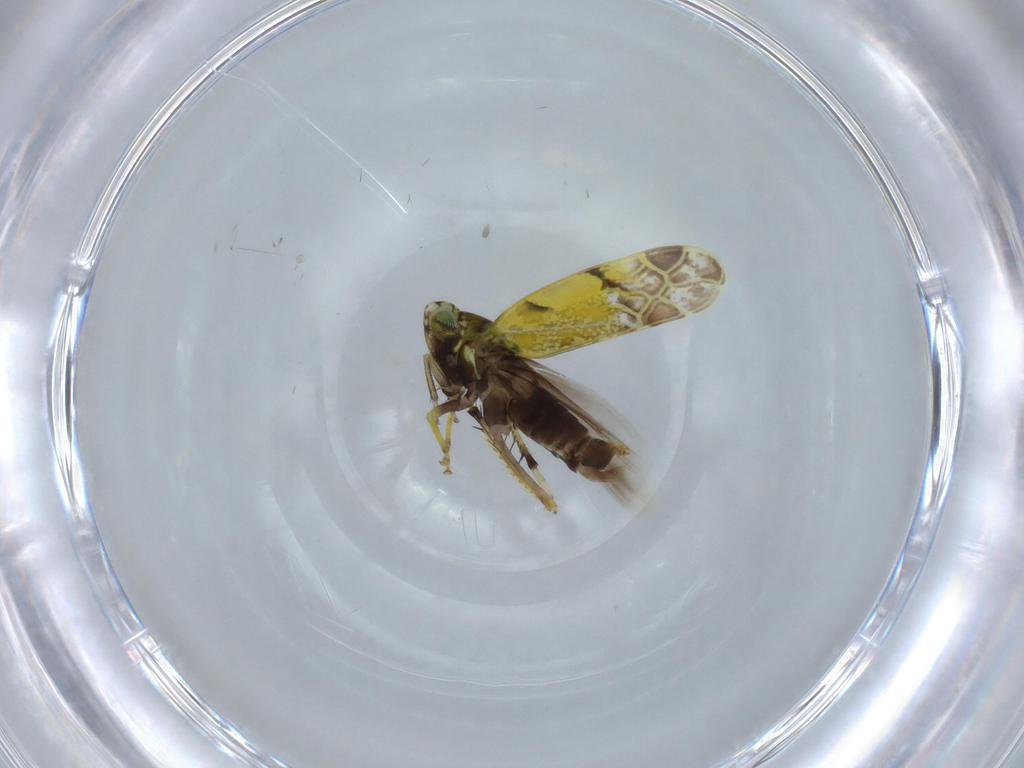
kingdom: Animalia
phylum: Arthropoda
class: Insecta
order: Hemiptera
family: Cicadellidae
